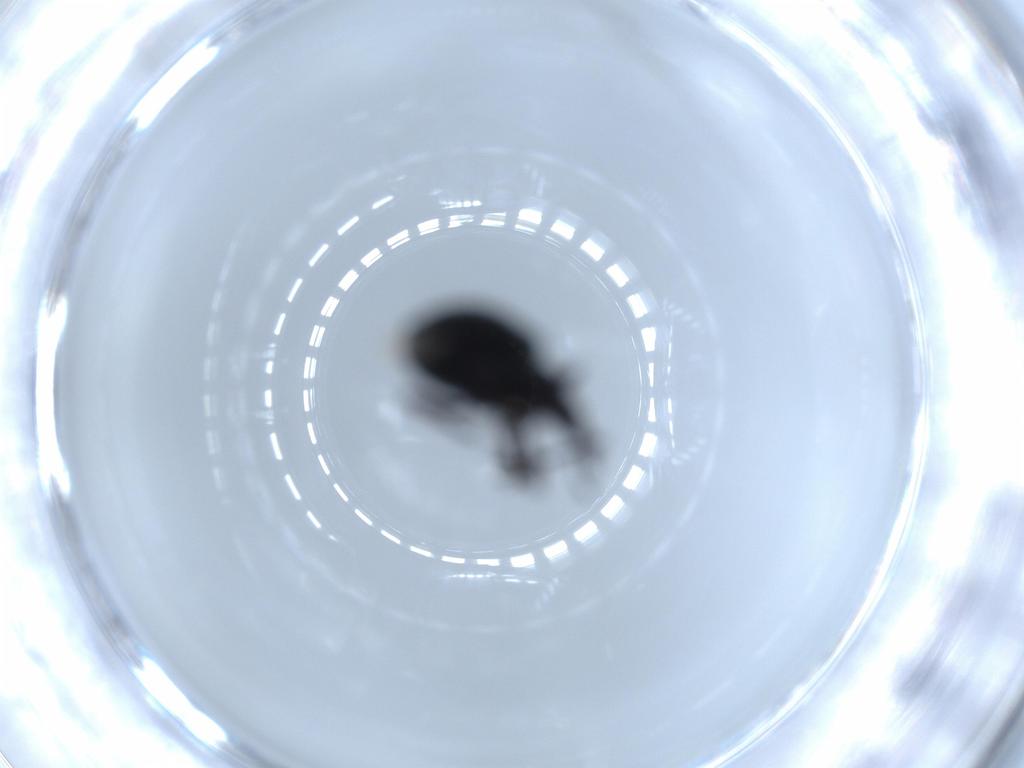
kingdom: Animalia
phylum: Arthropoda
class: Insecta
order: Coleoptera
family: Brentidae
